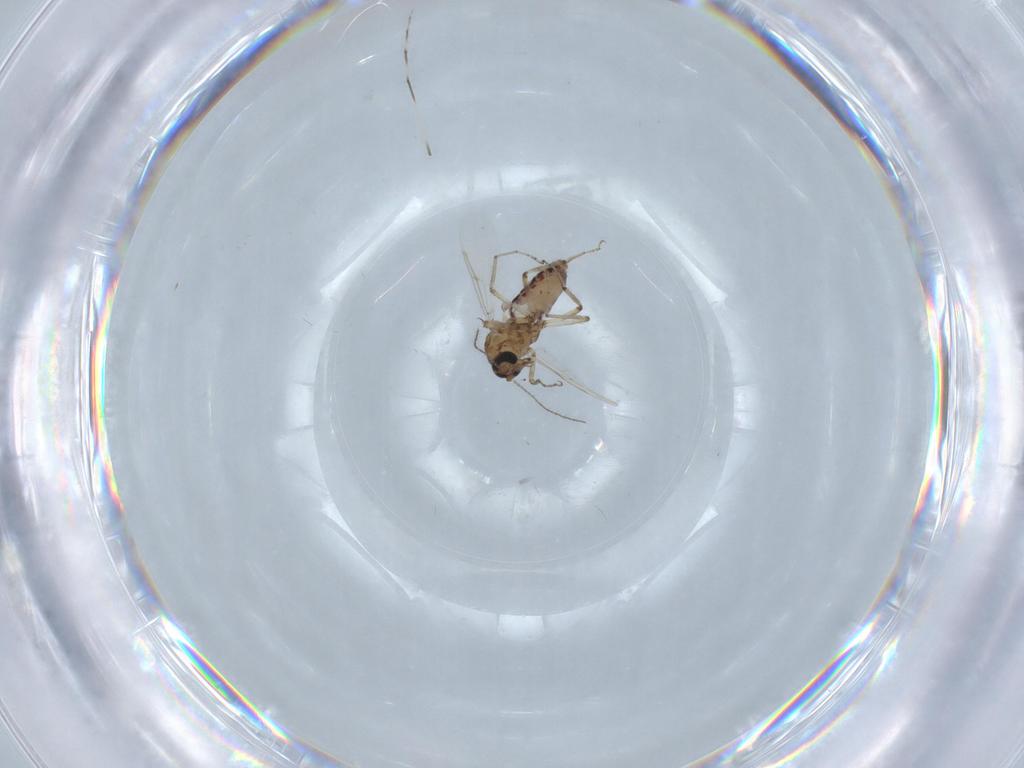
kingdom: Animalia
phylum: Arthropoda
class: Insecta
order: Diptera
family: Ceratopogonidae
